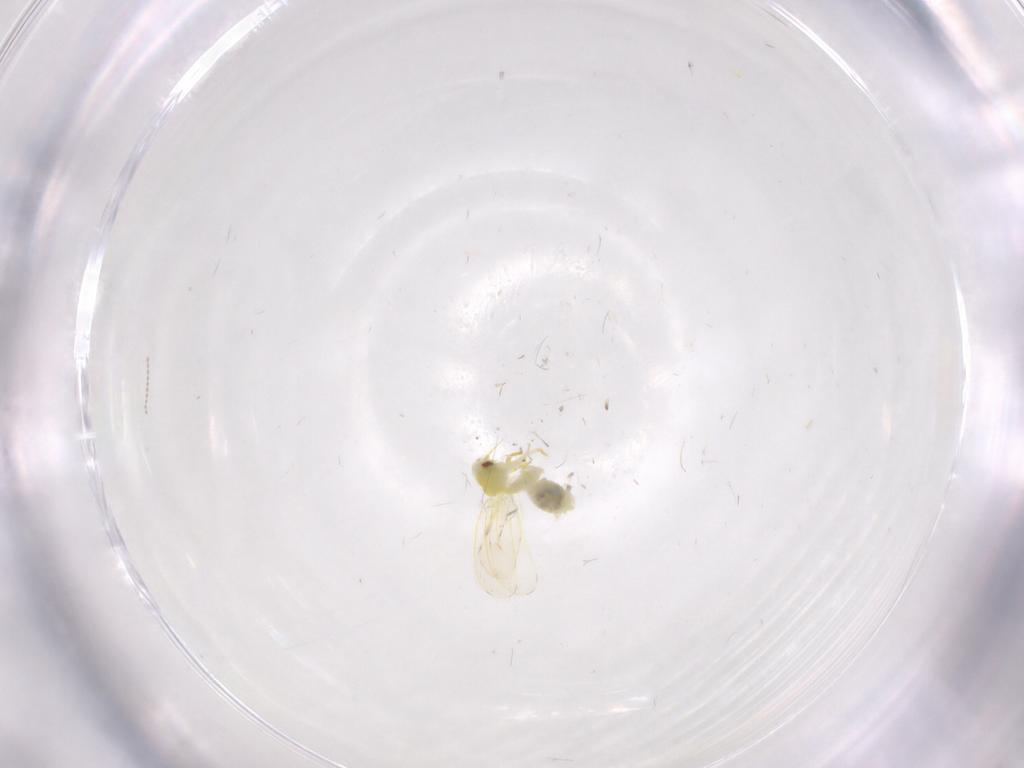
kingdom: Animalia
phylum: Arthropoda
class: Insecta
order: Hemiptera
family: Aleyrodidae
